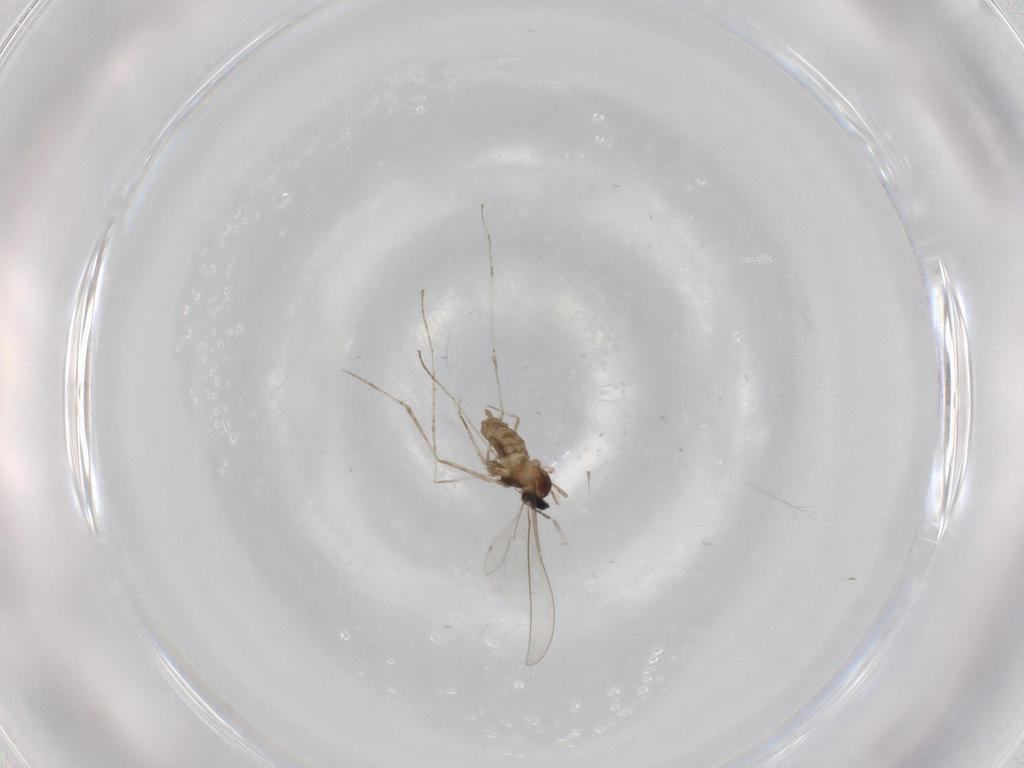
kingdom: Animalia
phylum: Arthropoda
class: Insecta
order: Diptera
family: Cecidomyiidae
